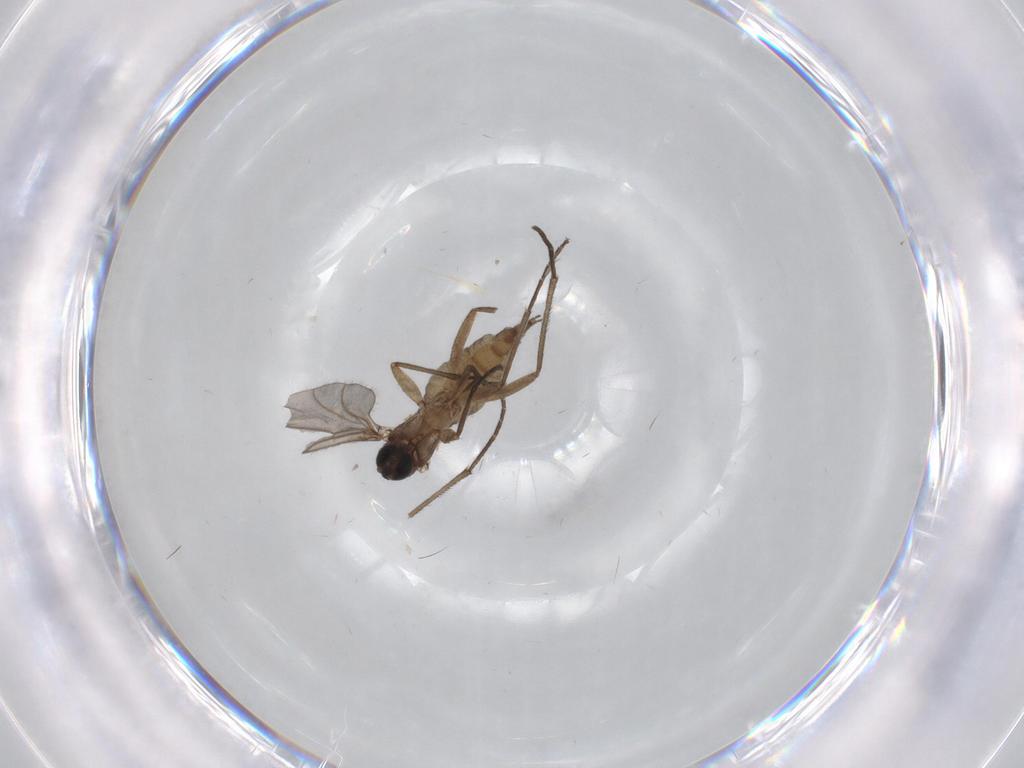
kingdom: Animalia
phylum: Arthropoda
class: Insecta
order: Diptera
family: Sciaridae
